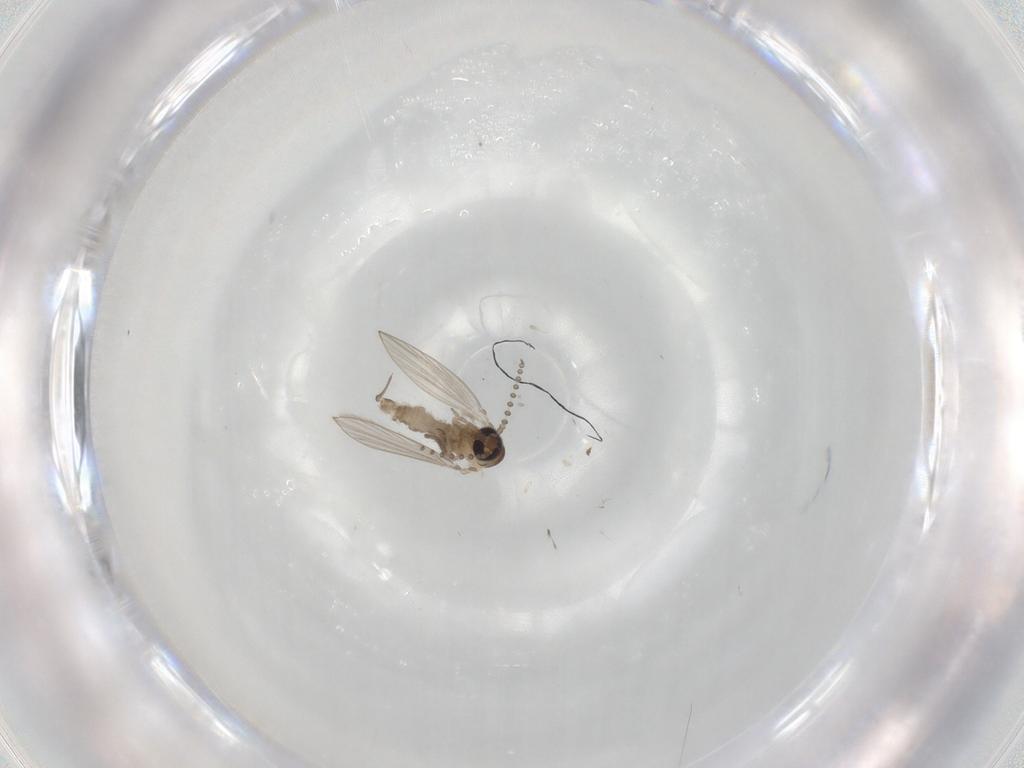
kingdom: Animalia
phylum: Arthropoda
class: Insecta
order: Diptera
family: Psychodidae
